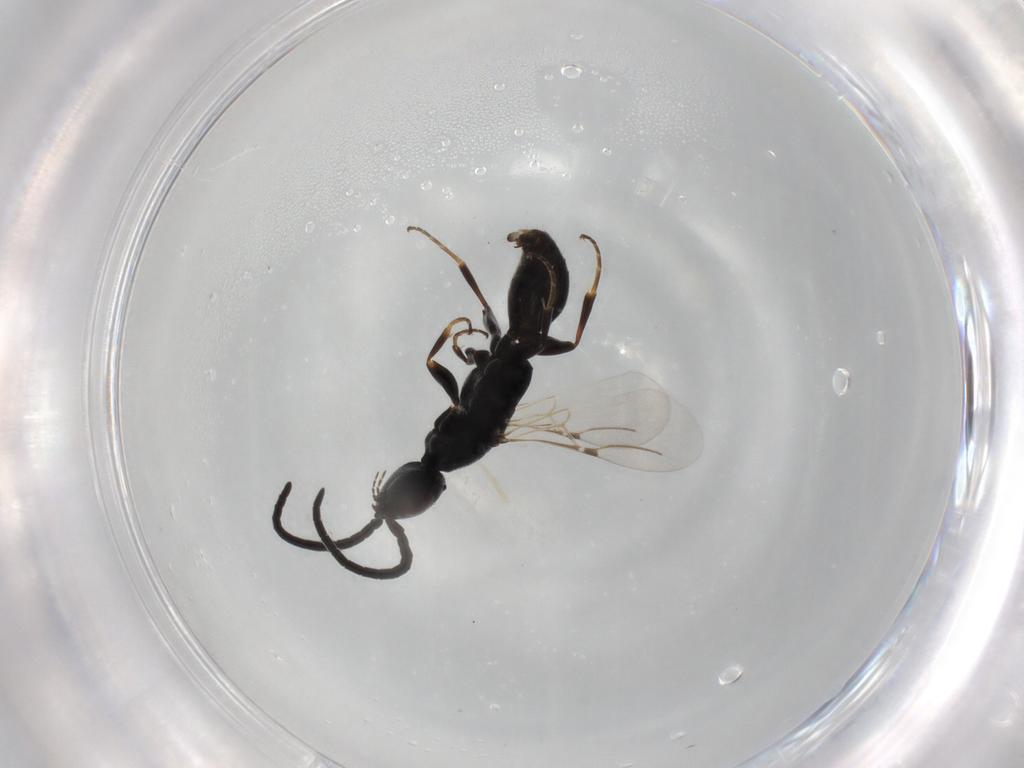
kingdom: Animalia
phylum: Arthropoda
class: Insecta
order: Hymenoptera
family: Bethylidae
